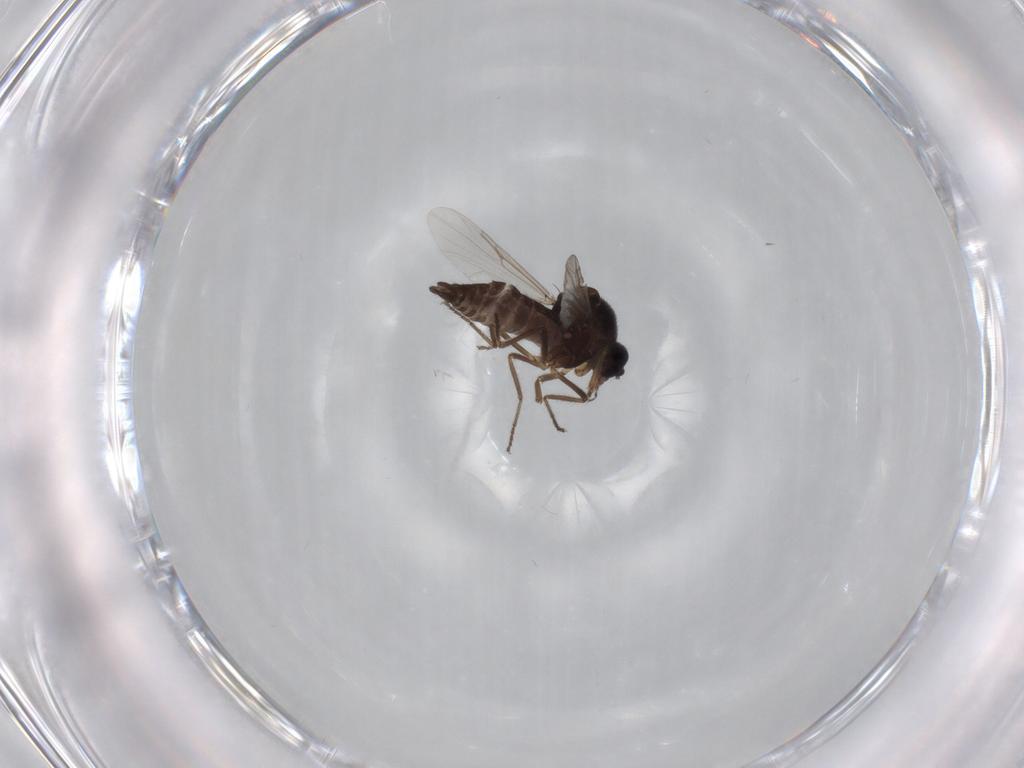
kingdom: Animalia
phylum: Arthropoda
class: Insecta
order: Diptera
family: Ceratopogonidae
